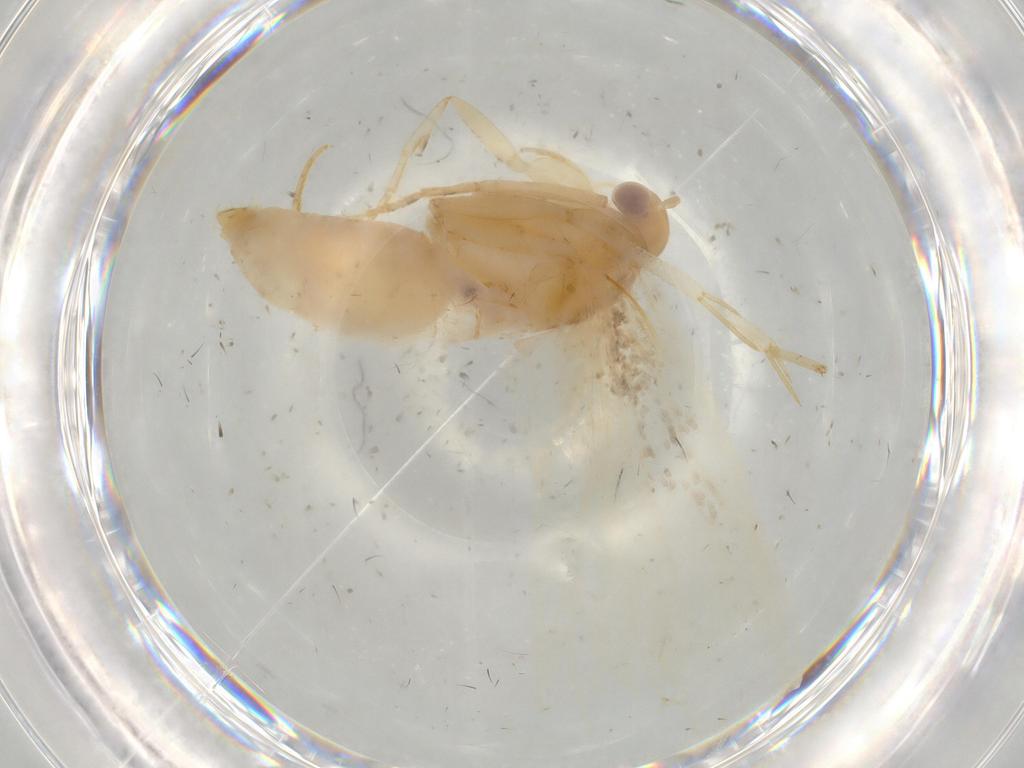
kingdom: Animalia
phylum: Arthropoda
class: Insecta
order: Lepidoptera
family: Gelechiidae
